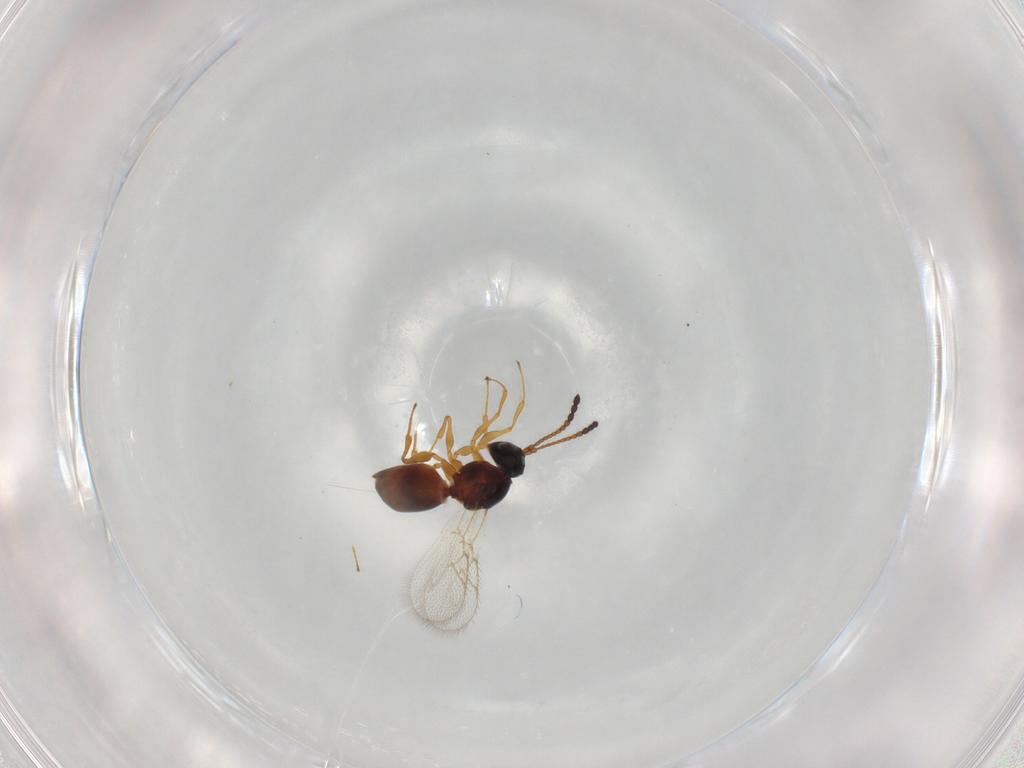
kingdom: Animalia
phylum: Arthropoda
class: Insecta
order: Hymenoptera
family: Figitidae
